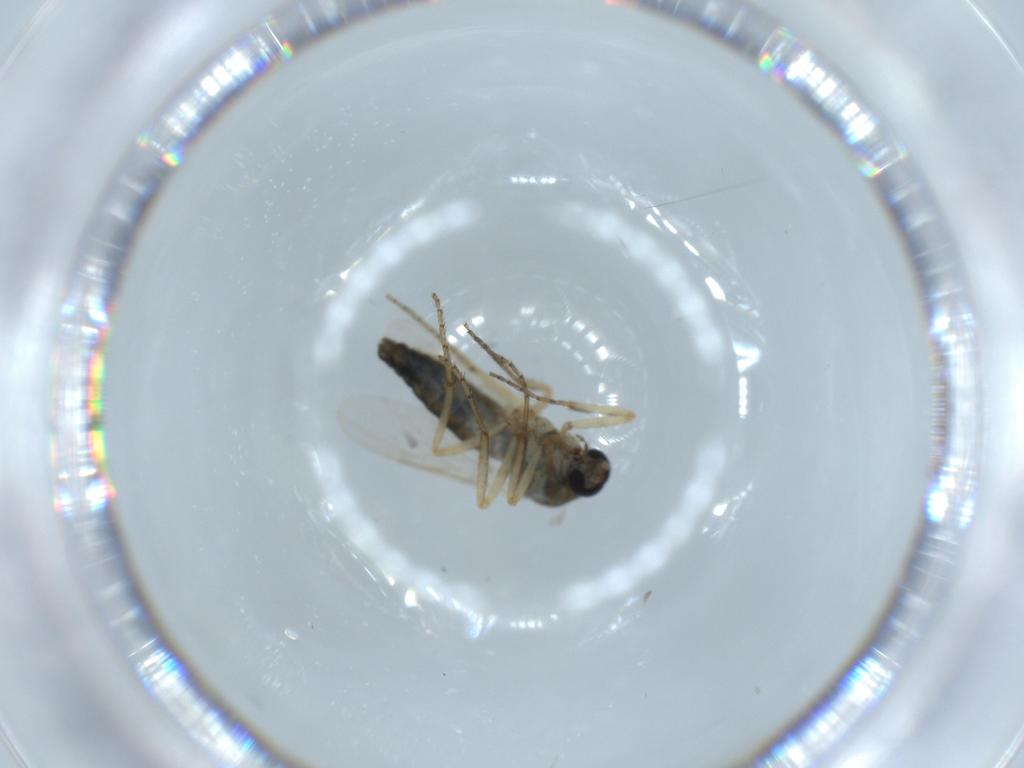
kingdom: Animalia
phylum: Arthropoda
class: Insecta
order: Diptera
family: Ceratopogonidae
